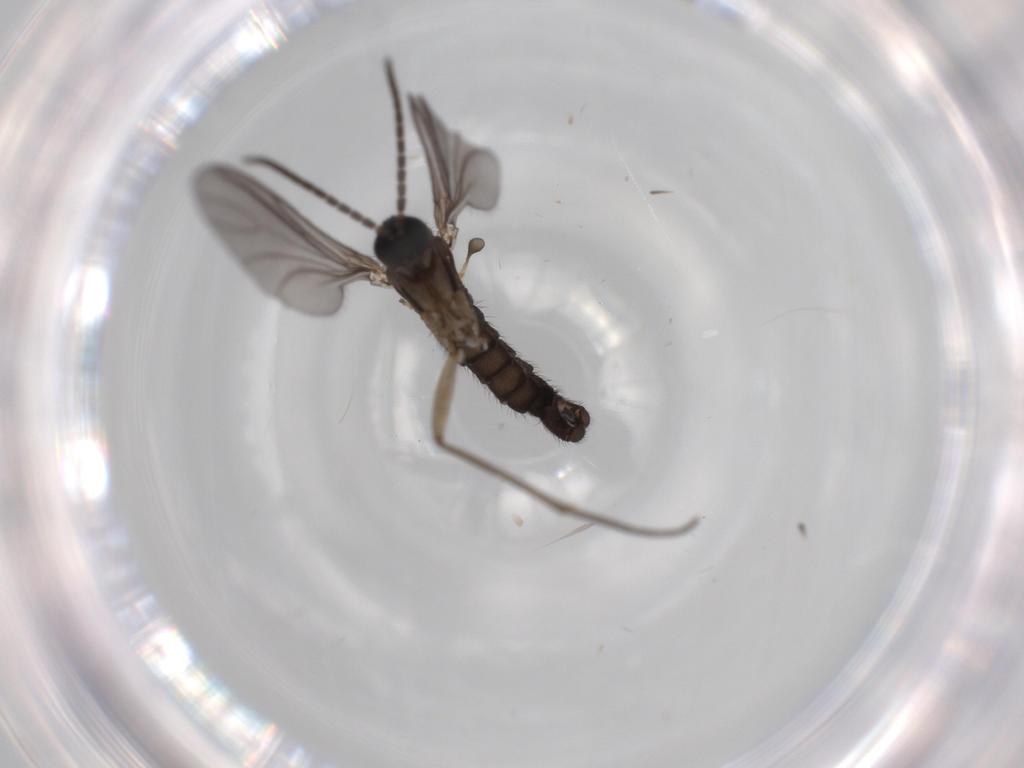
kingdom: Animalia
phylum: Arthropoda
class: Insecta
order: Diptera
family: Sciaridae
